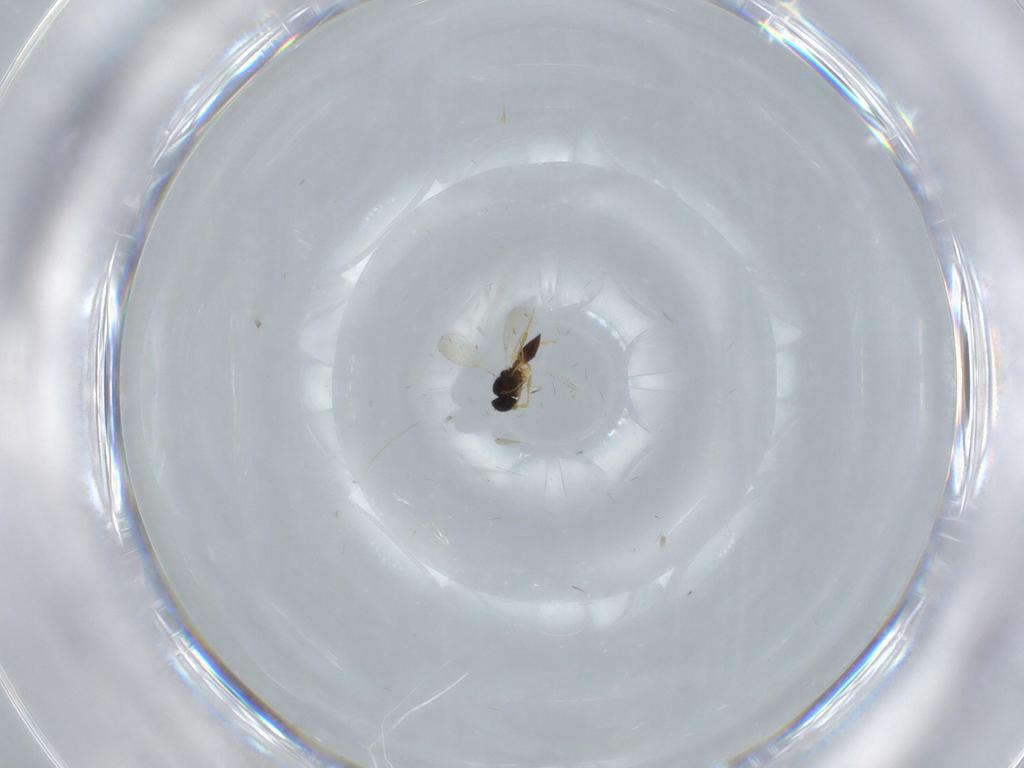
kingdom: Animalia
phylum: Arthropoda
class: Insecta
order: Hymenoptera
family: Platygastridae
